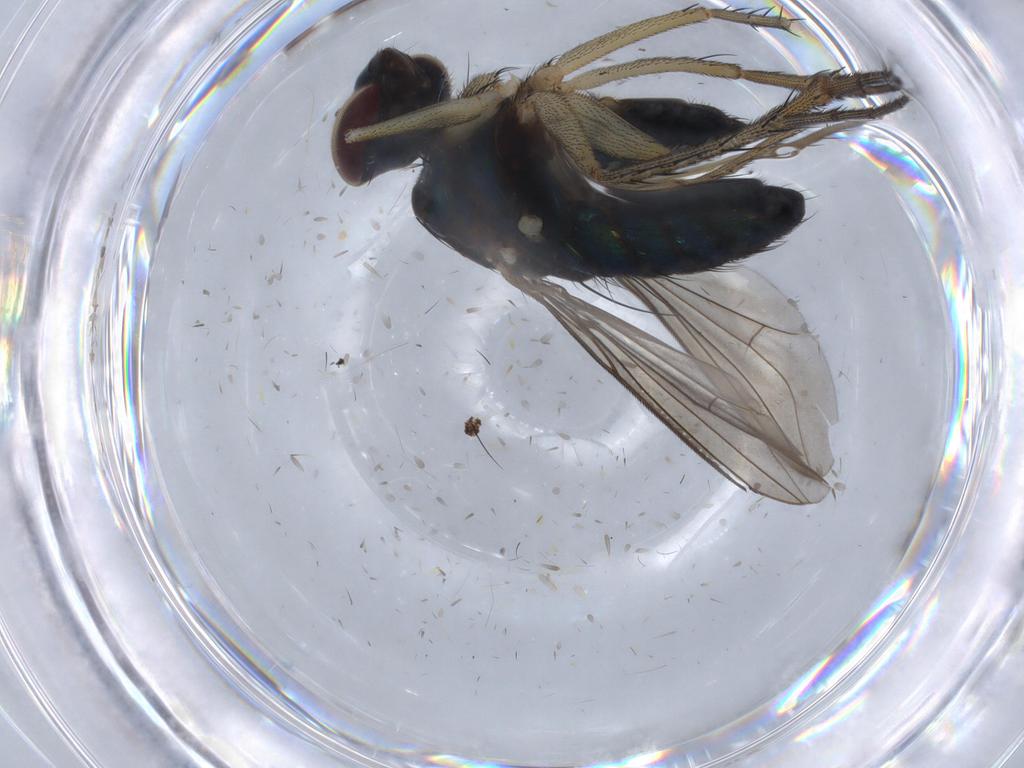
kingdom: Animalia
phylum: Arthropoda
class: Insecta
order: Diptera
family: Dolichopodidae
